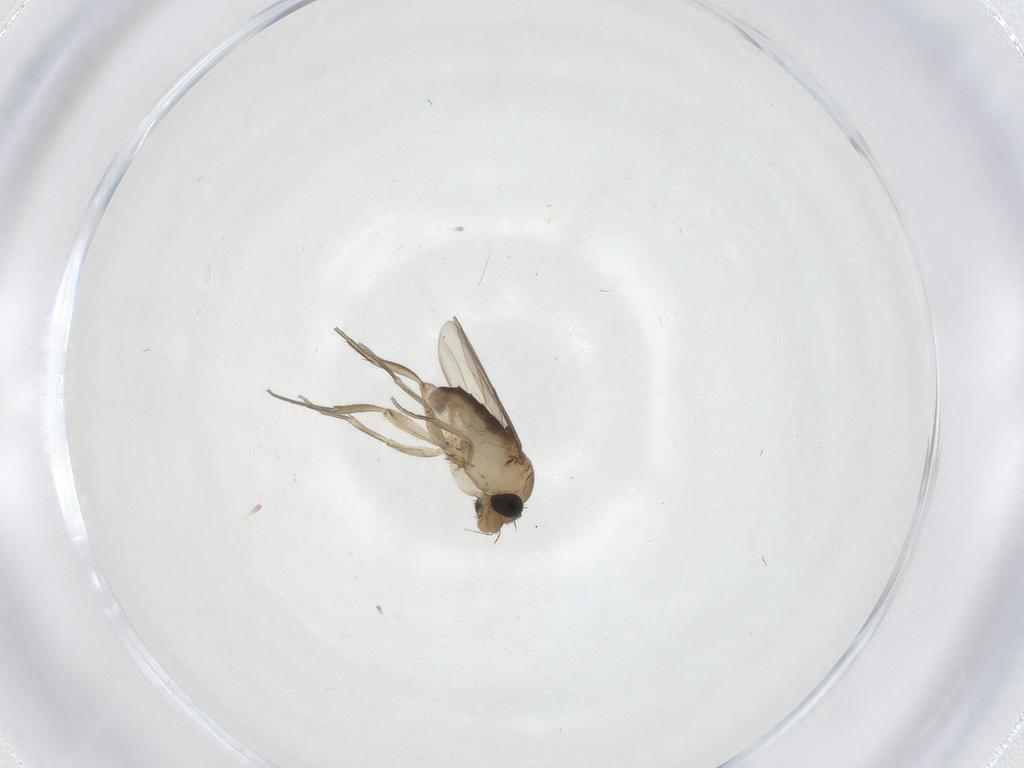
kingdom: Animalia
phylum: Arthropoda
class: Insecta
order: Diptera
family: Phoridae
